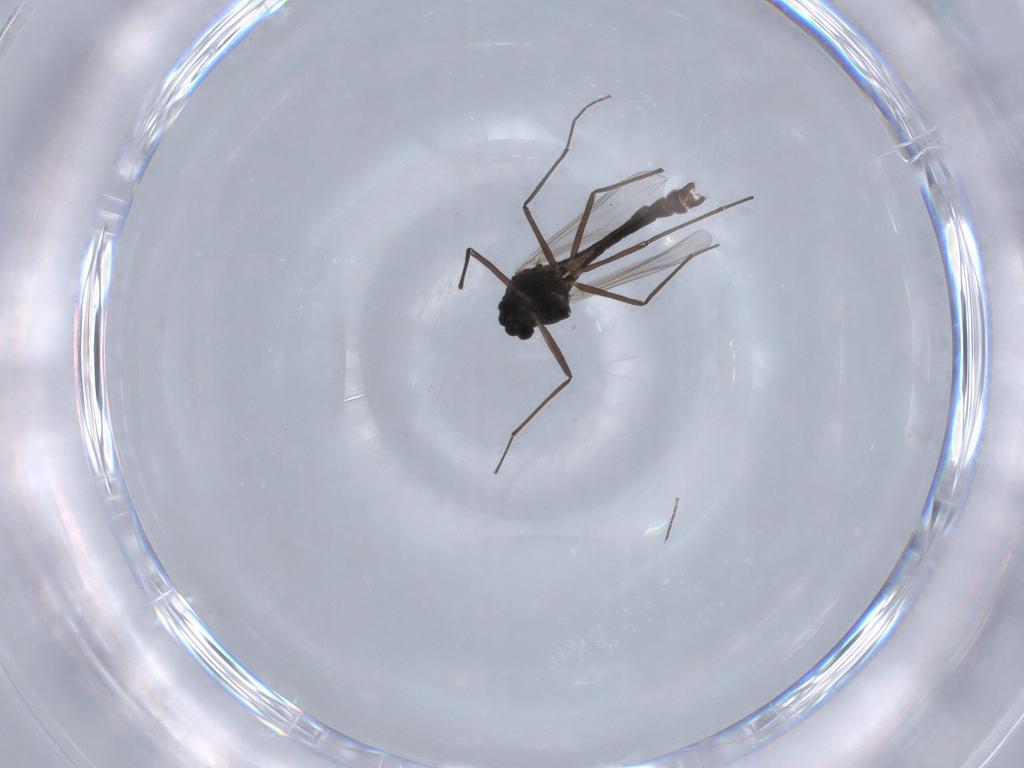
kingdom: Animalia
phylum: Arthropoda
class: Insecta
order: Diptera
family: Chironomidae
